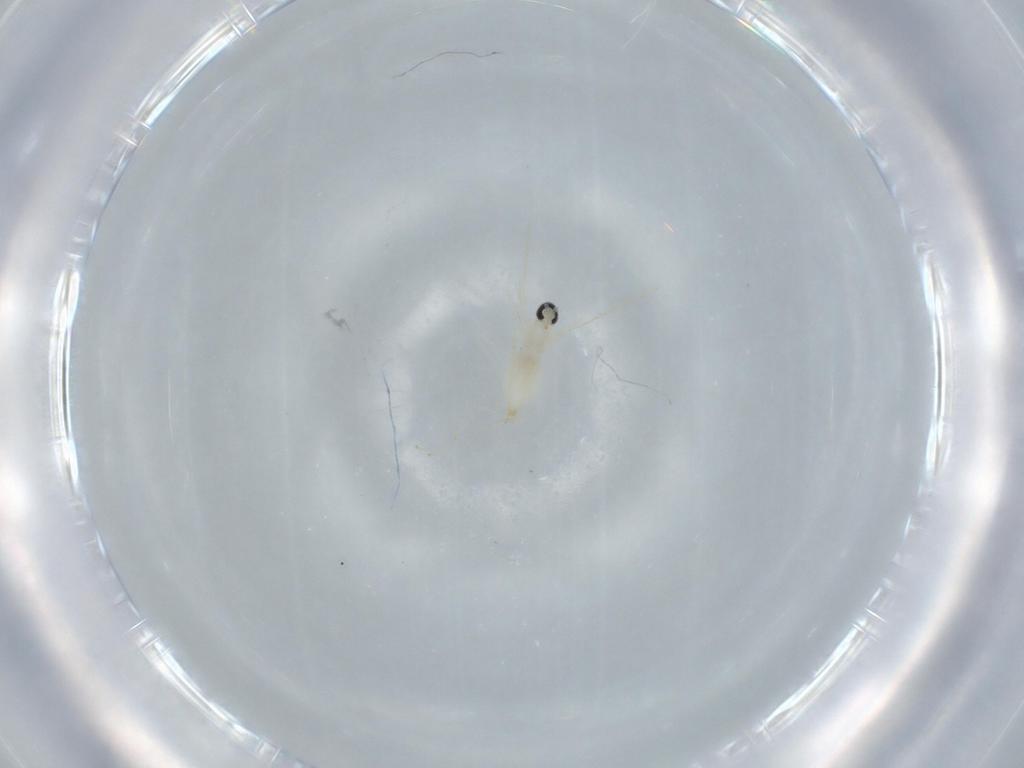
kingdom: Animalia
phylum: Arthropoda
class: Insecta
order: Diptera
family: Cecidomyiidae
